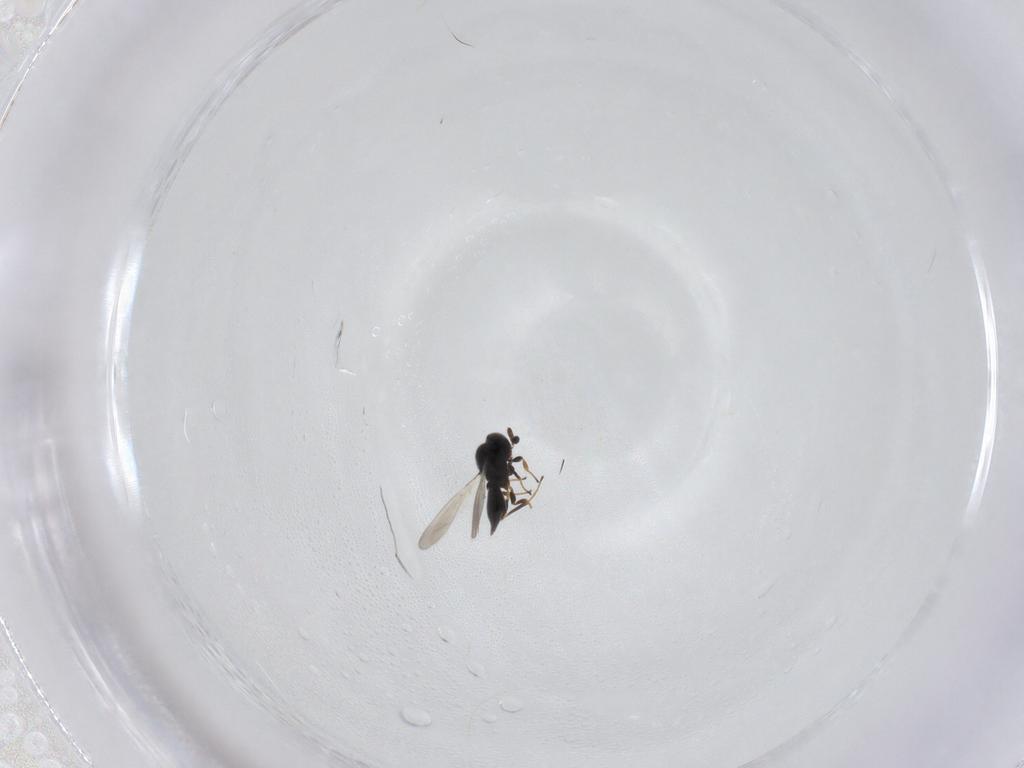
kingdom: Animalia
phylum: Arthropoda
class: Insecta
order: Hymenoptera
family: Platygastridae
